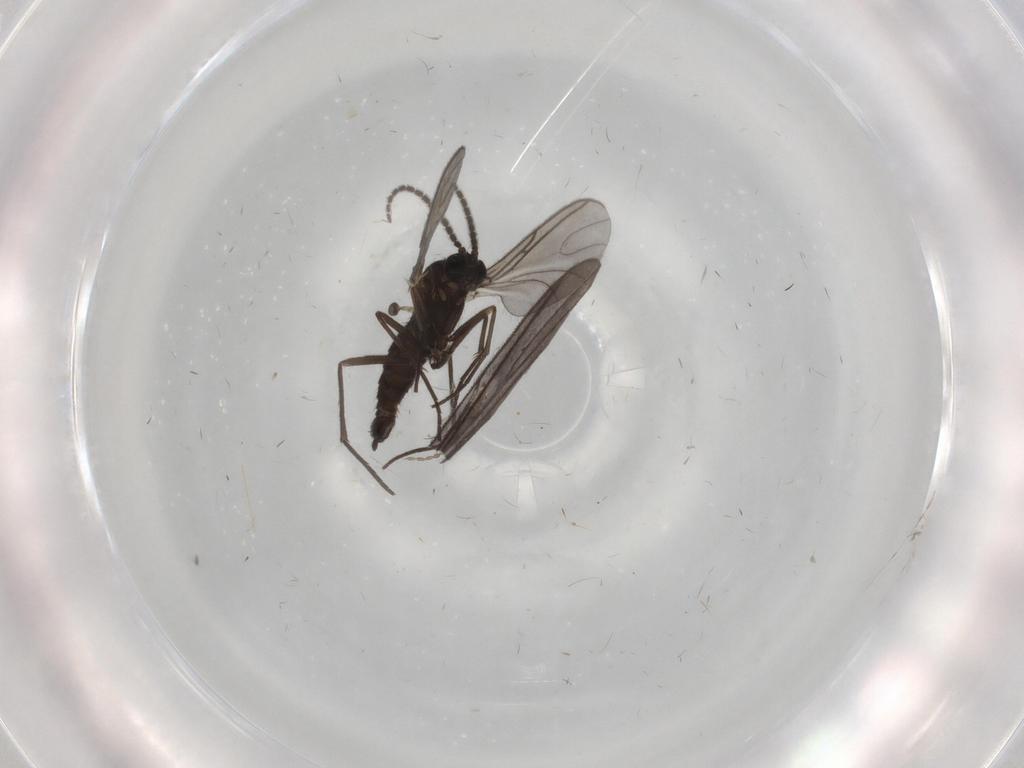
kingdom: Animalia
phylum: Arthropoda
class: Insecta
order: Diptera
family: Sciaridae
